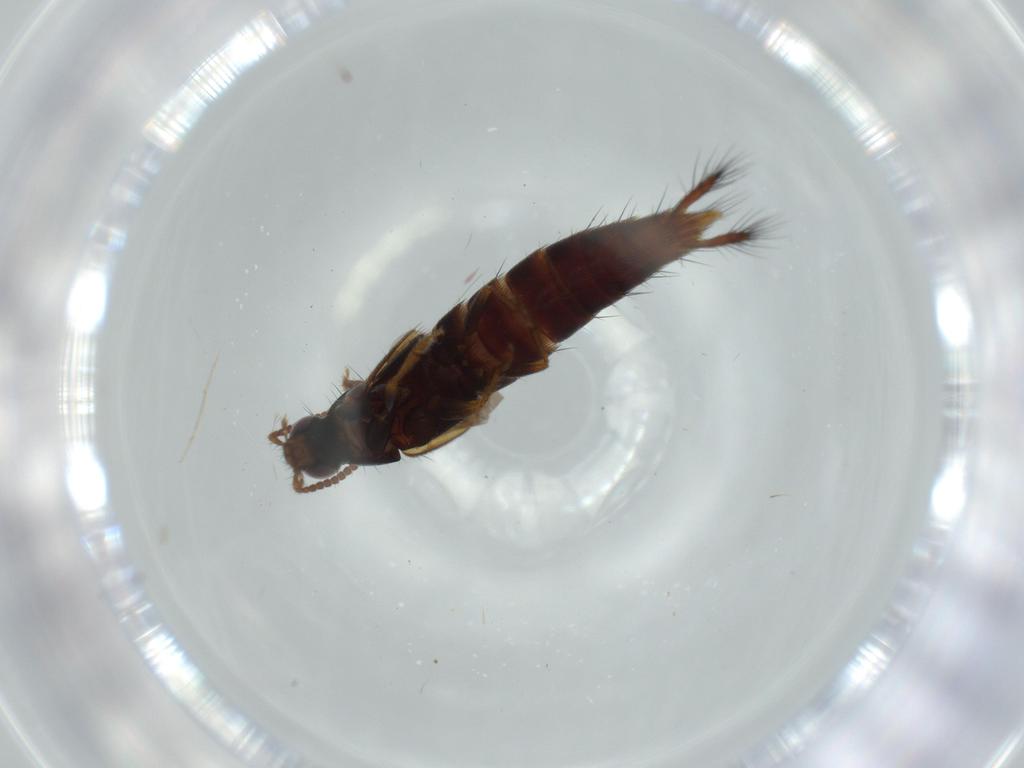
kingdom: Animalia
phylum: Arthropoda
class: Insecta
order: Coleoptera
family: Staphylinidae
